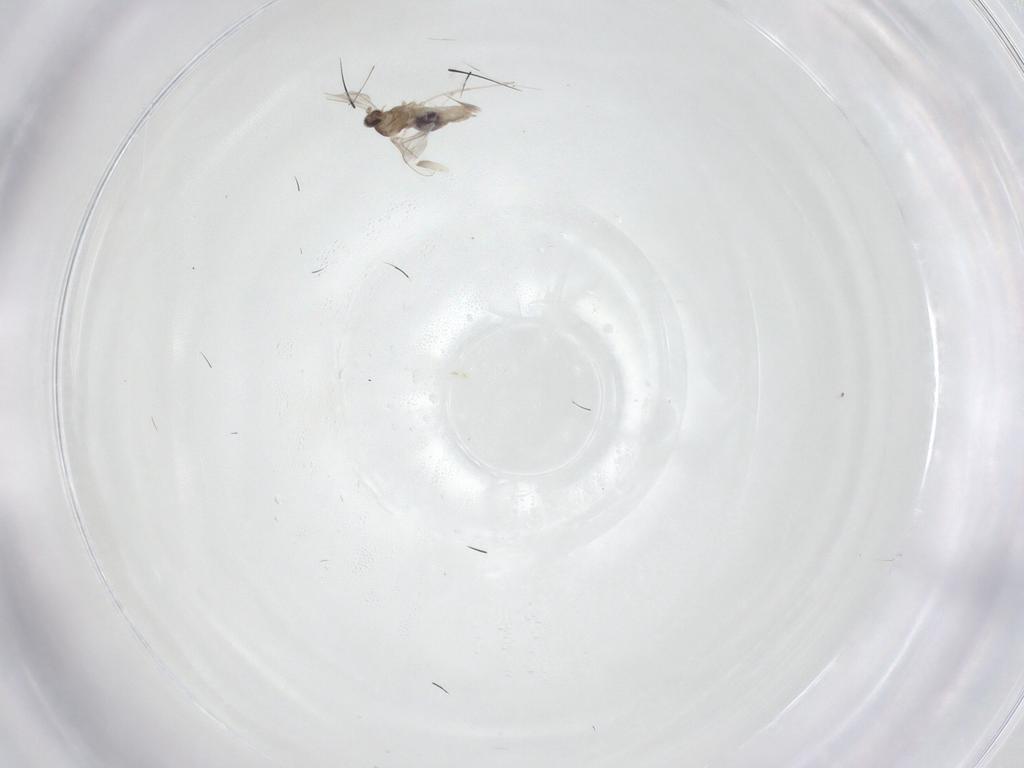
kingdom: Animalia
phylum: Arthropoda
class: Insecta
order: Diptera
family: Cecidomyiidae
